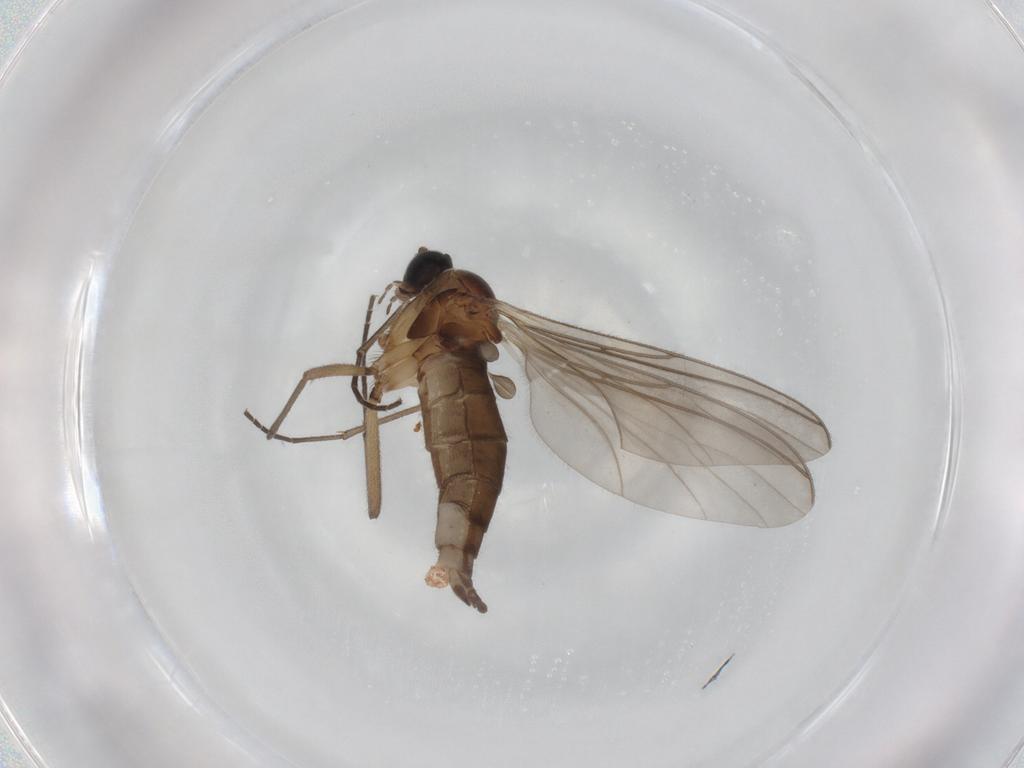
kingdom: Animalia
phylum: Arthropoda
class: Insecta
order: Diptera
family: Sciaridae
